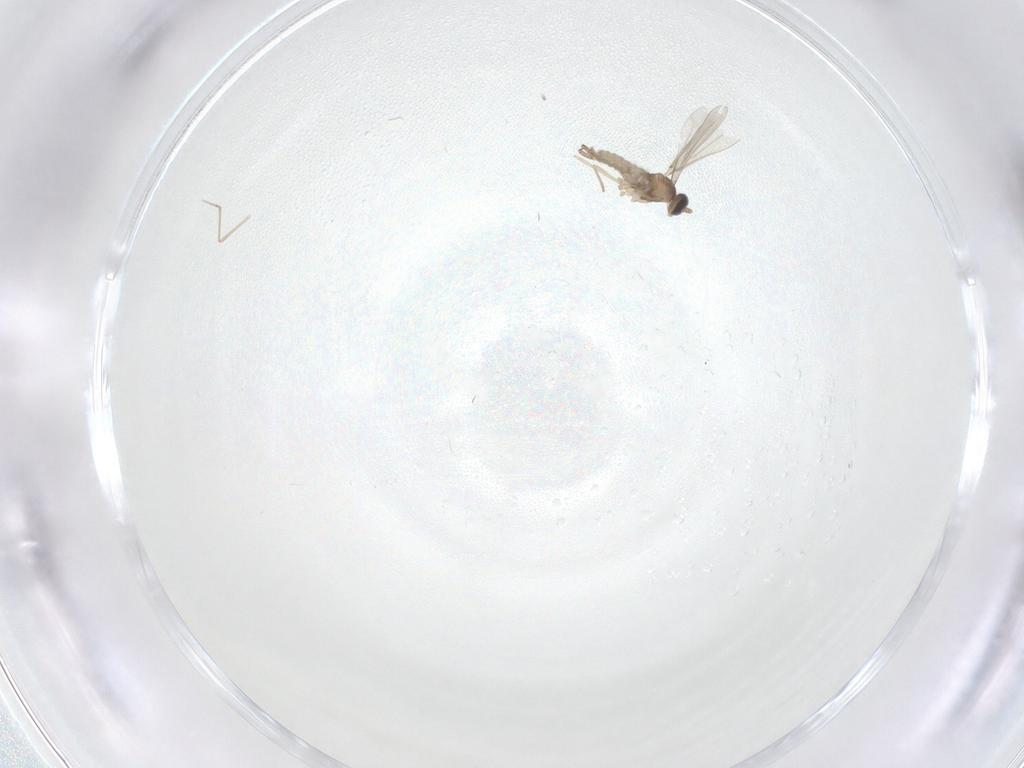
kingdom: Animalia
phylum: Arthropoda
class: Insecta
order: Diptera
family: Cecidomyiidae
